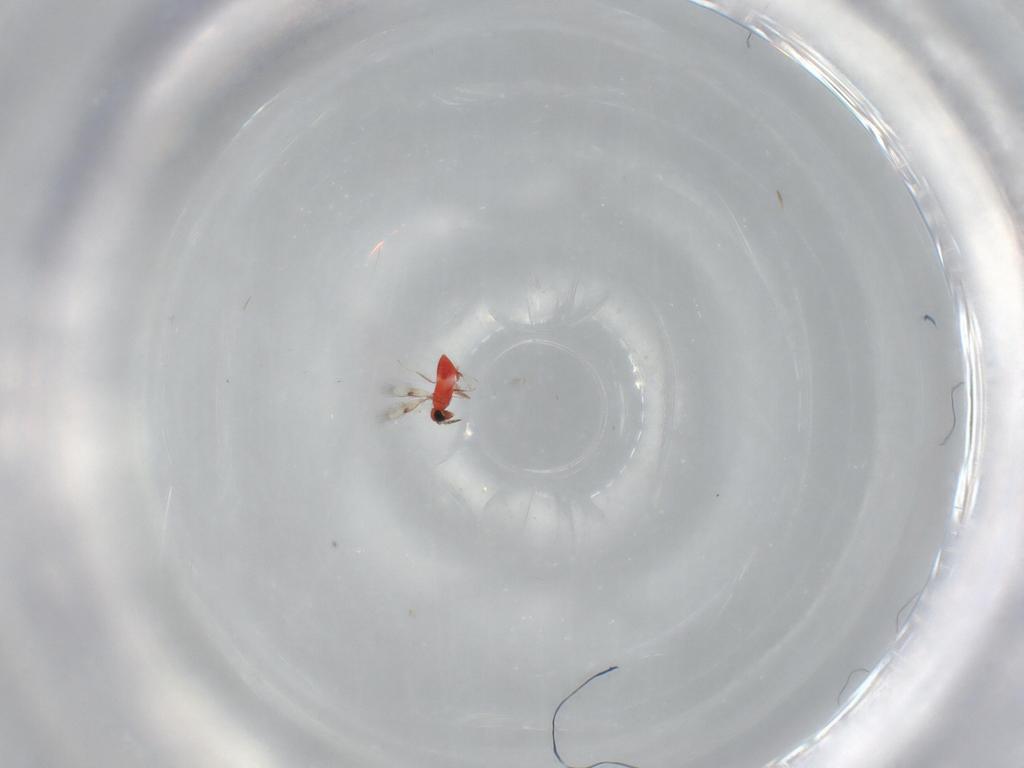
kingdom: Animalia
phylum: Arthropoda
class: Insecta
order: Hymenoptera
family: Trichogrammatidae
